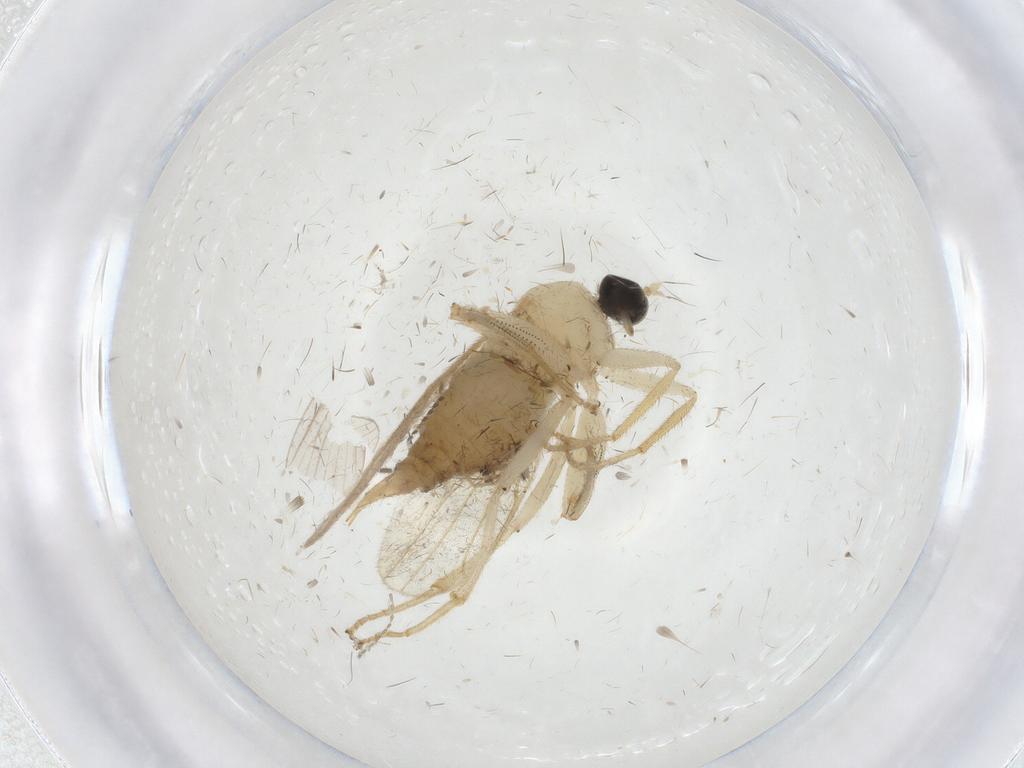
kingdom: Animalia
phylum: Arthropoda
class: Insecta
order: Diptera
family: Hybotidae
